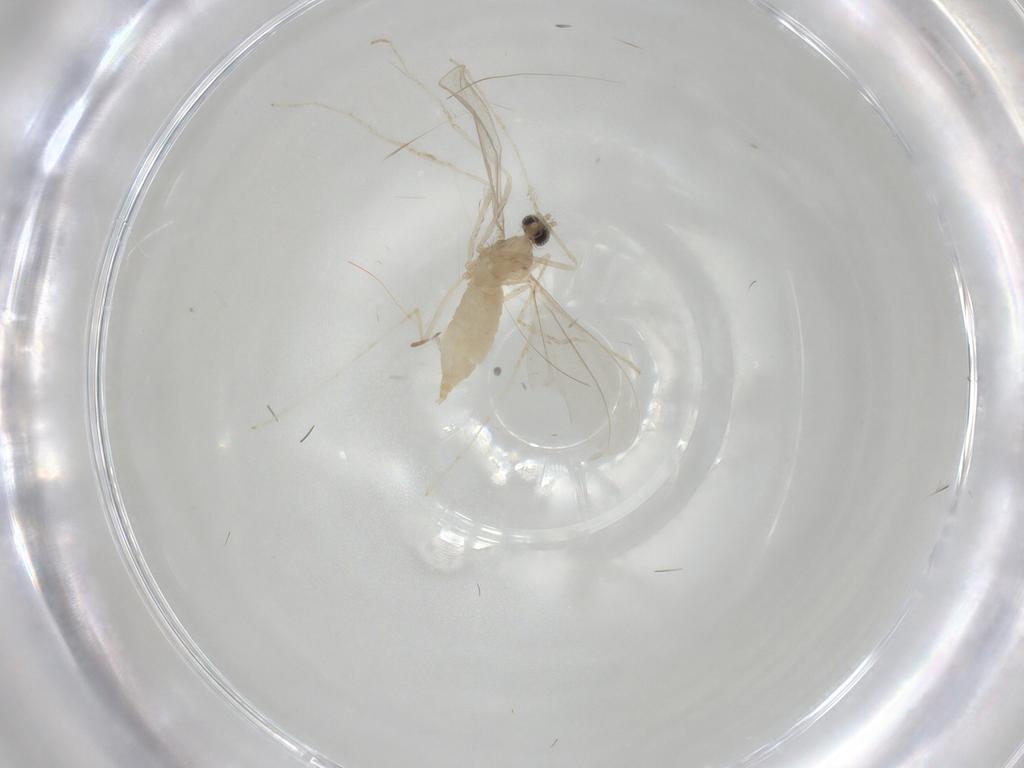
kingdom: Animalia
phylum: Arthropoda
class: Insecta
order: Diptera
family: Cecidomyiidae
